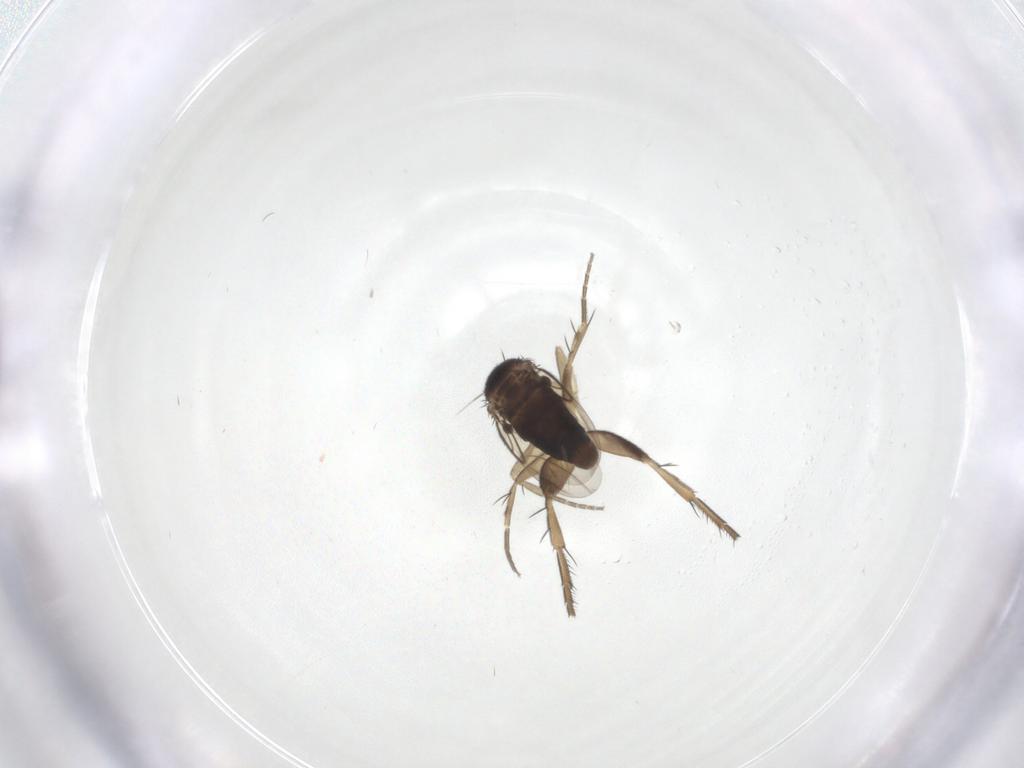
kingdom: Animalia
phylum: Arthropoda
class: Insecta
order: Diptera
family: Phoridae
